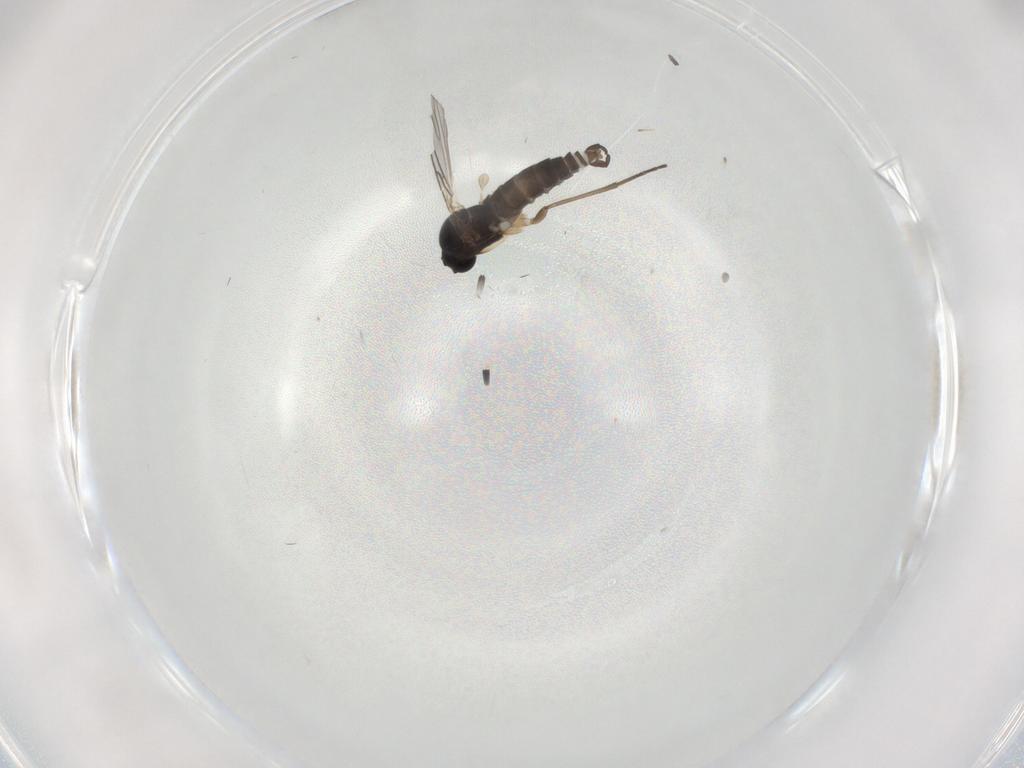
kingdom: Animalia
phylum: Arthropoda
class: Insecta
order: Diptera
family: Sciaridae
